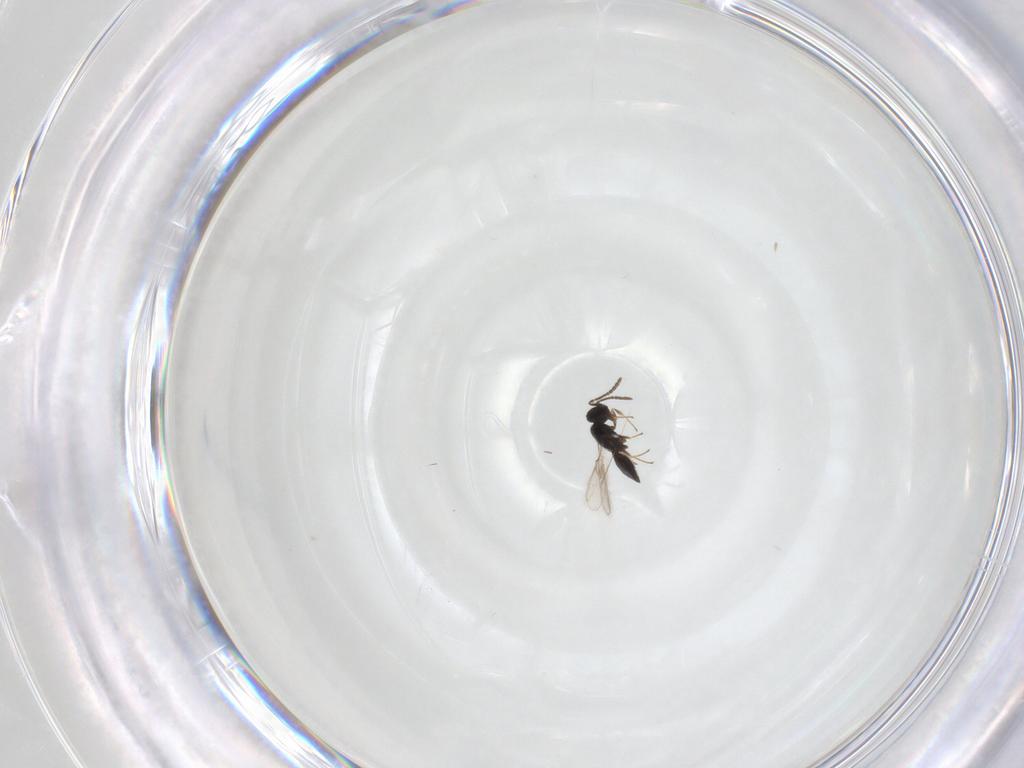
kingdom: Animalia
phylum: Arthropoda
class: Insecta
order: Hymenoptera
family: Scelionidae
